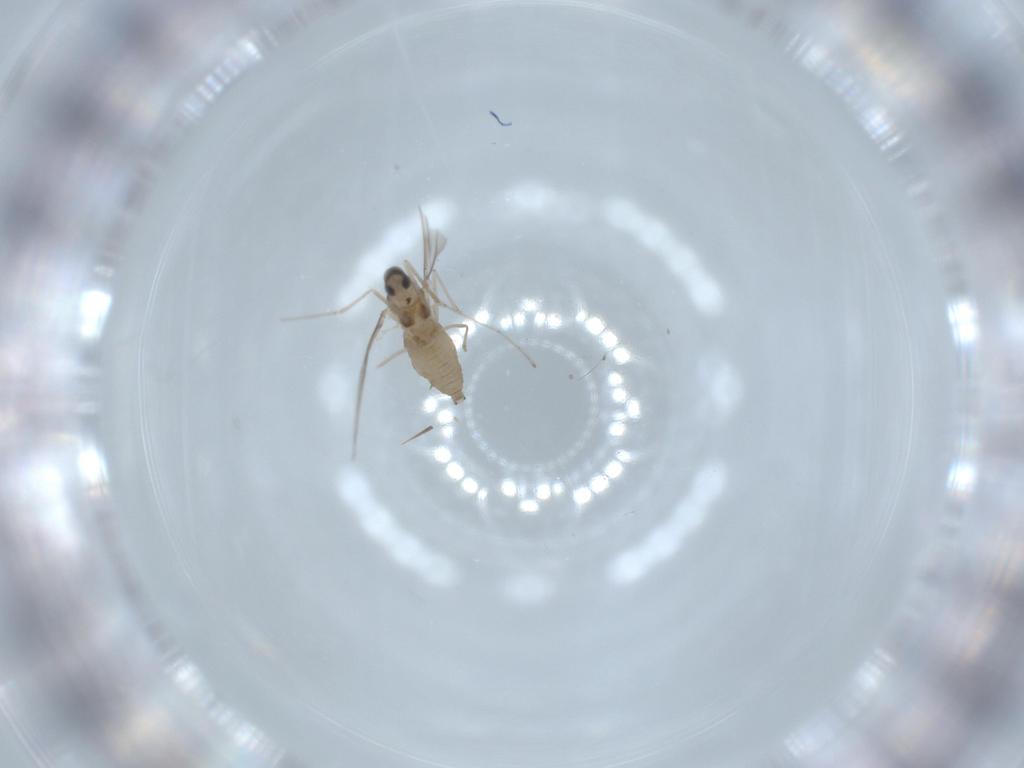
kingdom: Animalia
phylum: Arthropoda
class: Insecta
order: Diptera
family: Cecidomyiidae
